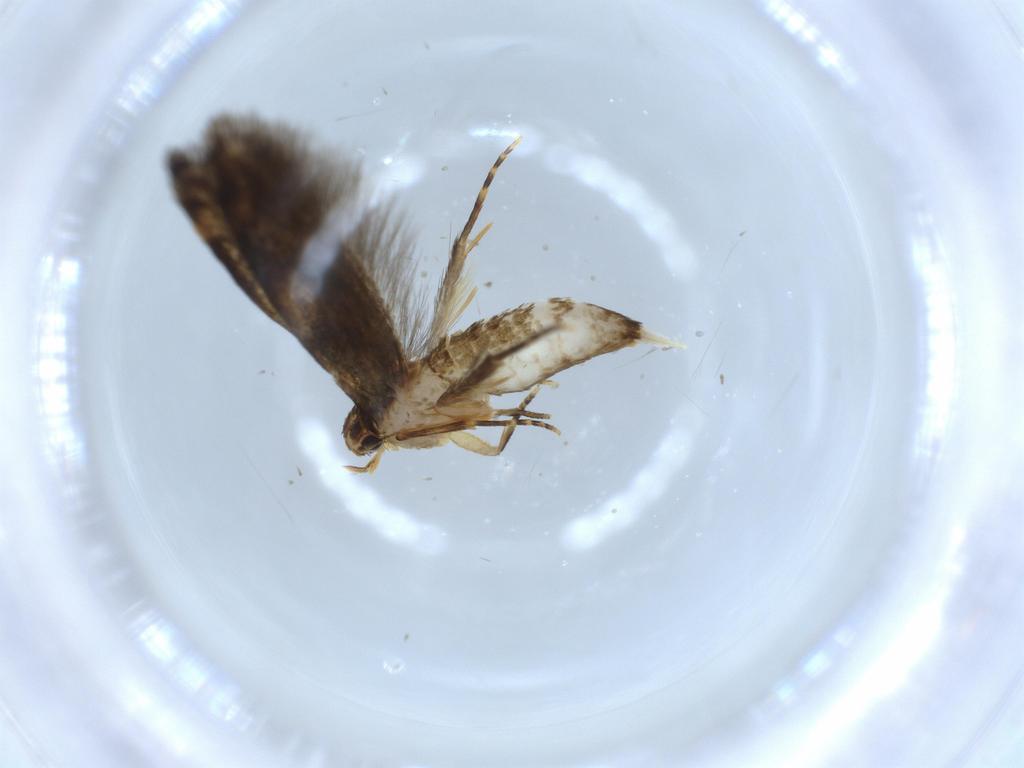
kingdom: Animalia
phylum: Arthropoda
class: Insecta
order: Lepidoptera
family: Tineidae
